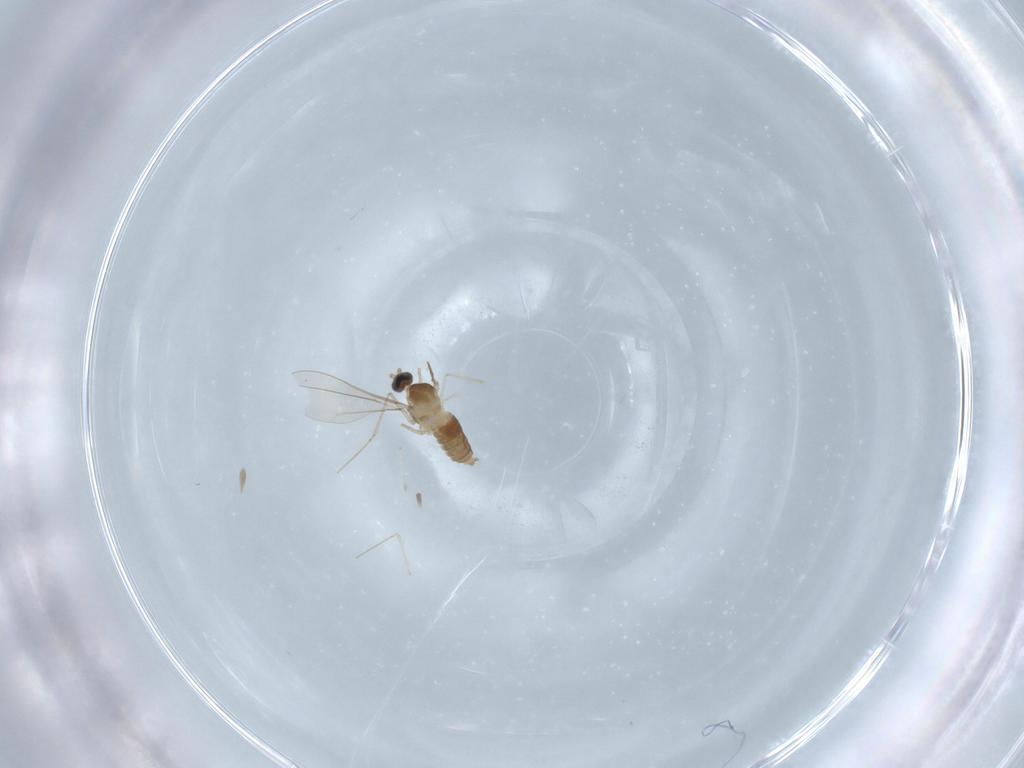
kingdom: Animalia
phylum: Arthropoda
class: Insecta
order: Diptera
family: Cecidomyiidae
